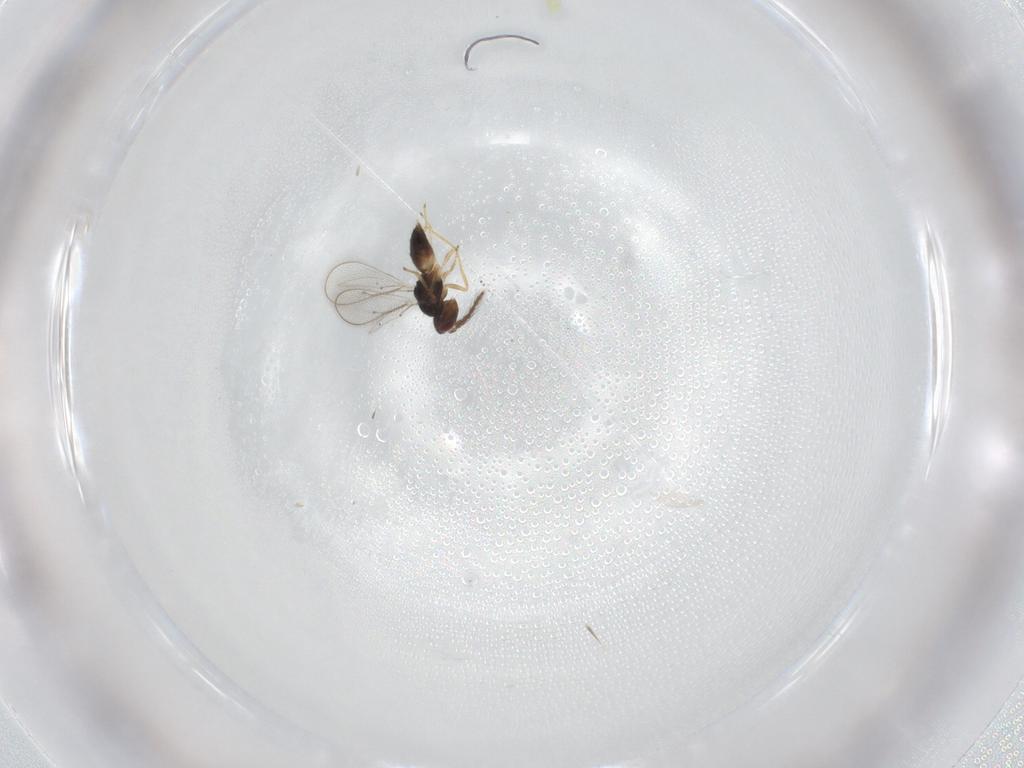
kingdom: Animalia
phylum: Arthropoda
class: Insecta
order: Hymenoptera
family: Eulophidae
